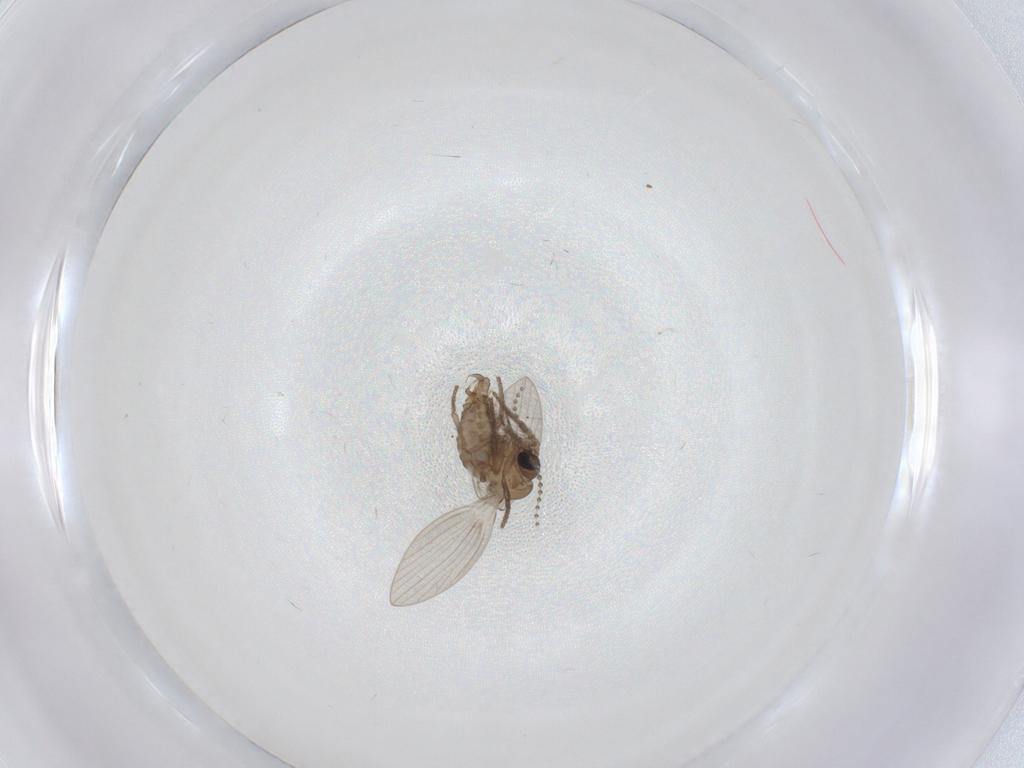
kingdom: Animalia
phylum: Arthropoda
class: Insecta
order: Diptera
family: Psychodidae
